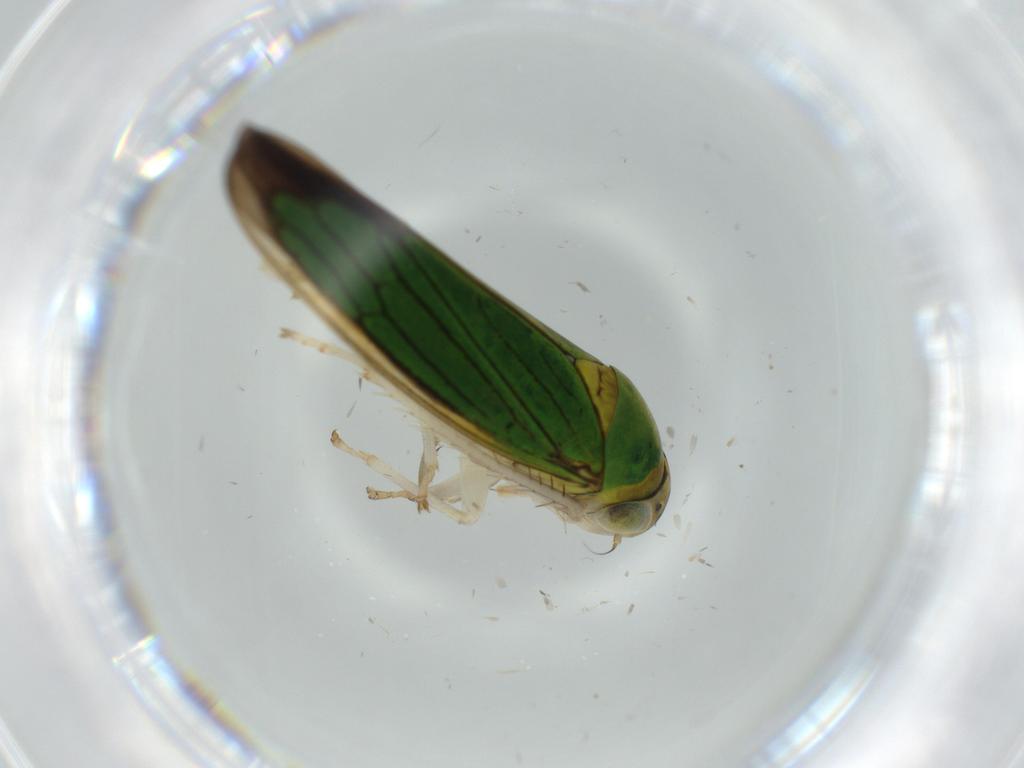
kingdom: Animalia
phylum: Arthropoda
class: Insecta
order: Hemiptera
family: Cicadellidae
